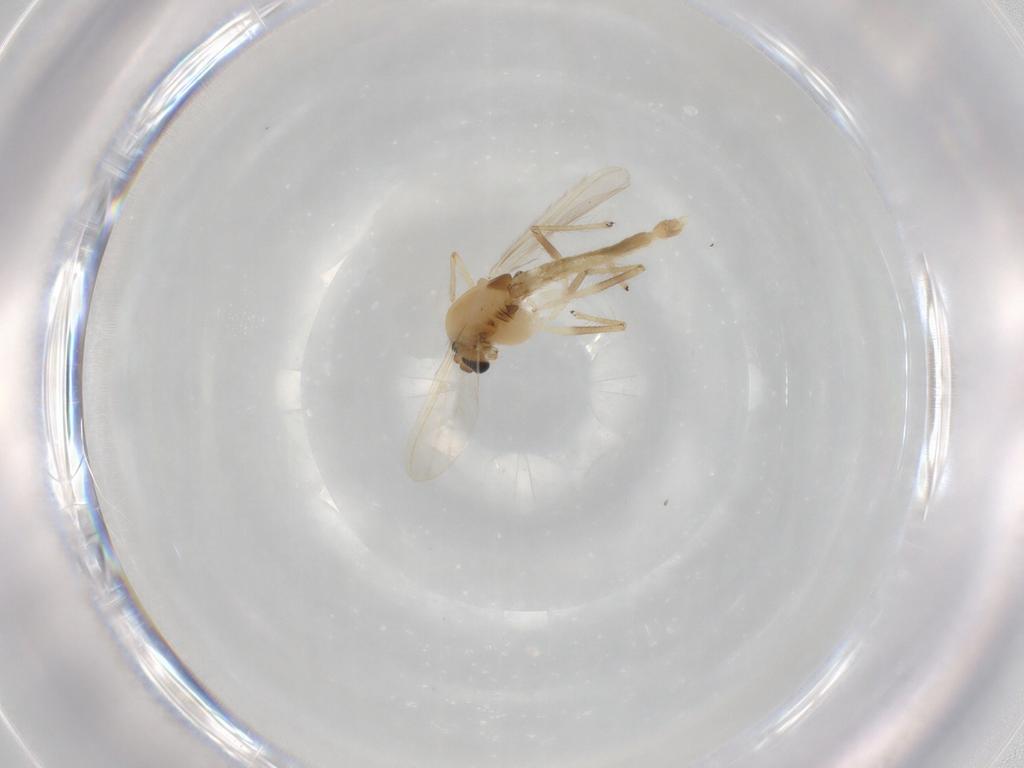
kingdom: Animalia
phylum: Arthropoda
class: Insecta
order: Diptera
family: Chironomidae
